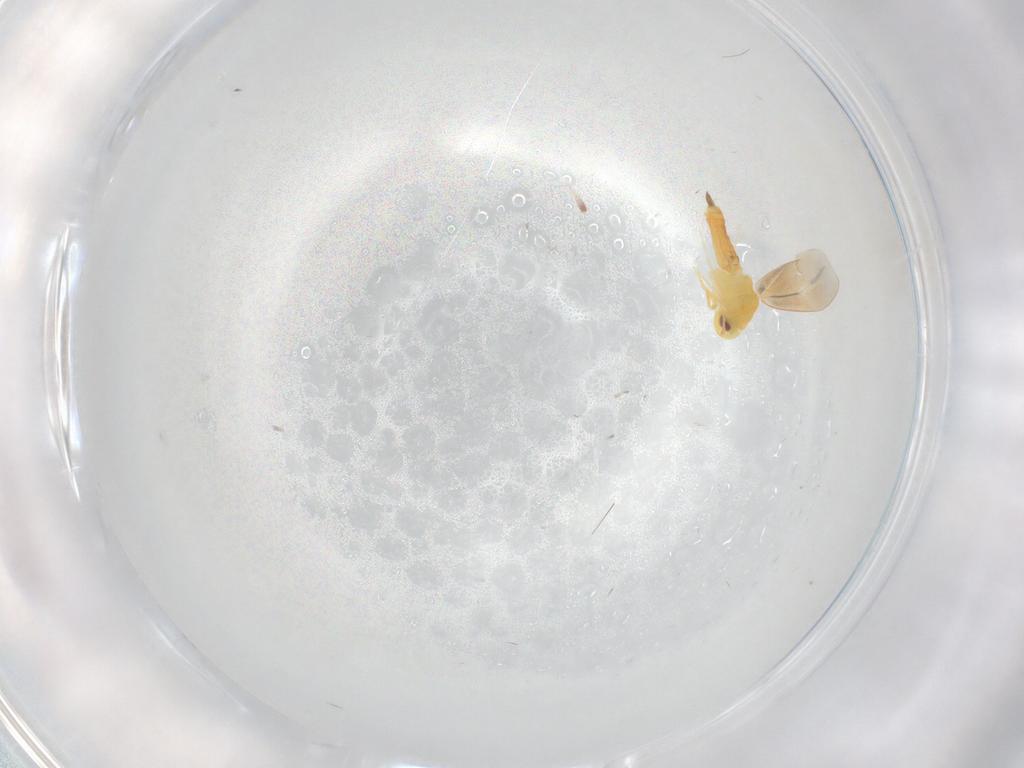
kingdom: Animalia
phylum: Arthropoda
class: Insecta
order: Hemiptera
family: Aleyrodidae
